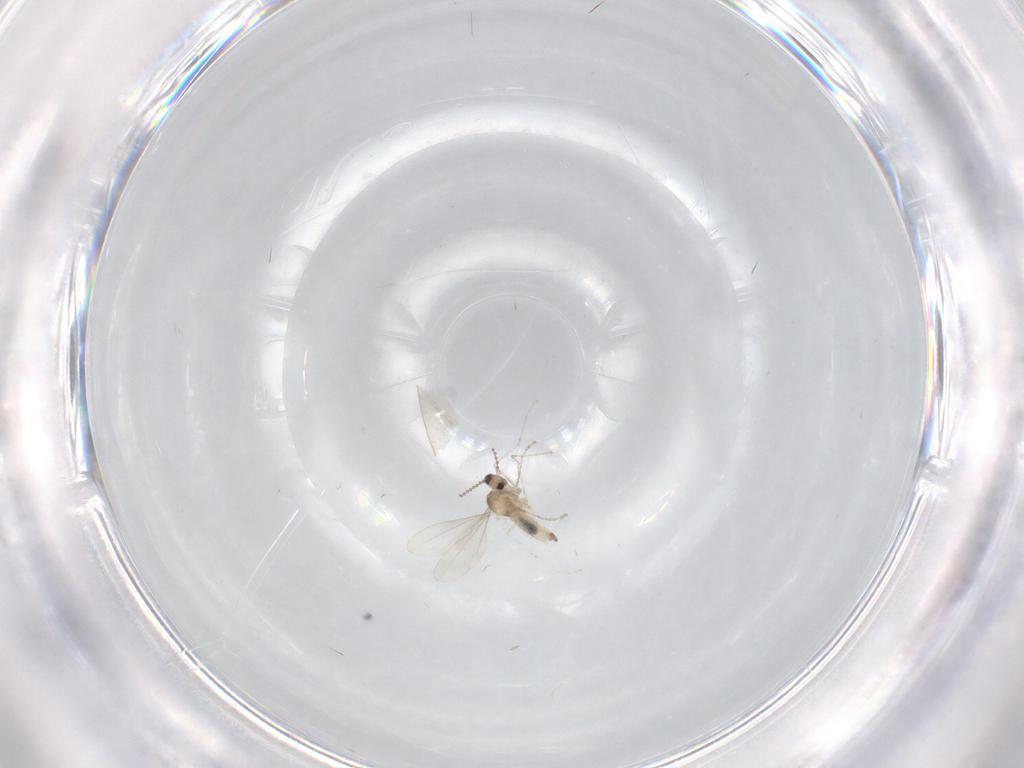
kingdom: Animalia
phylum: Arthropoda
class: Insecta
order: Diptera
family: Cecidomyiidae
